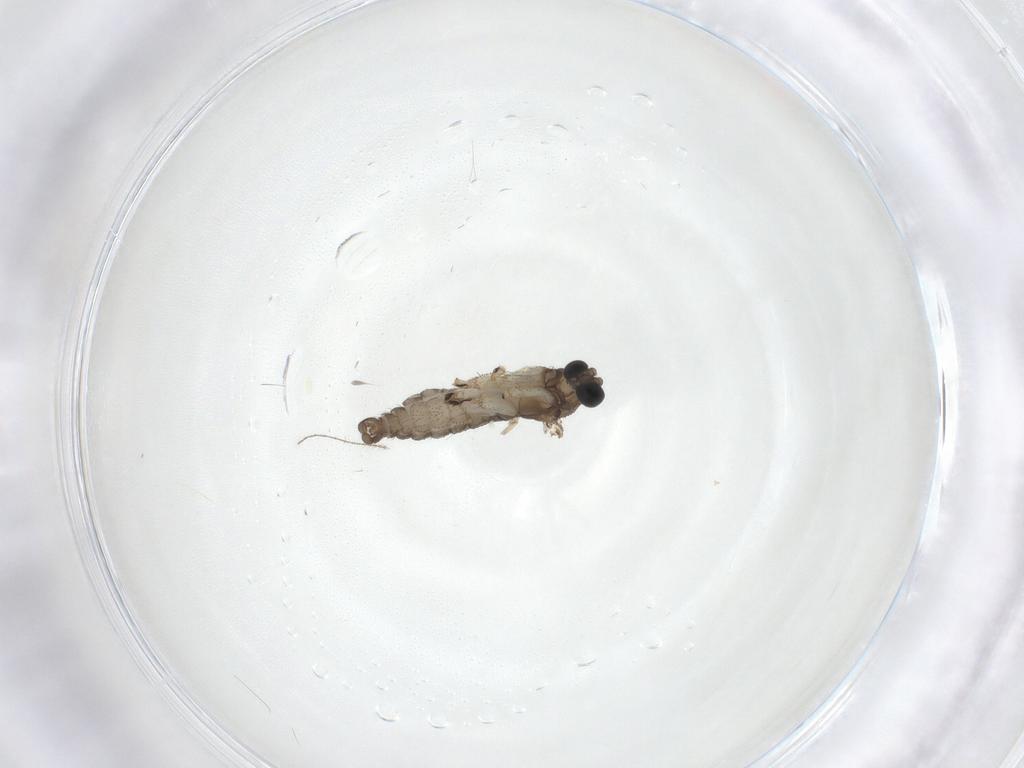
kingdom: Animalia
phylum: Arthropoda
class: Insecta
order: Diptera
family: Sciaridae
